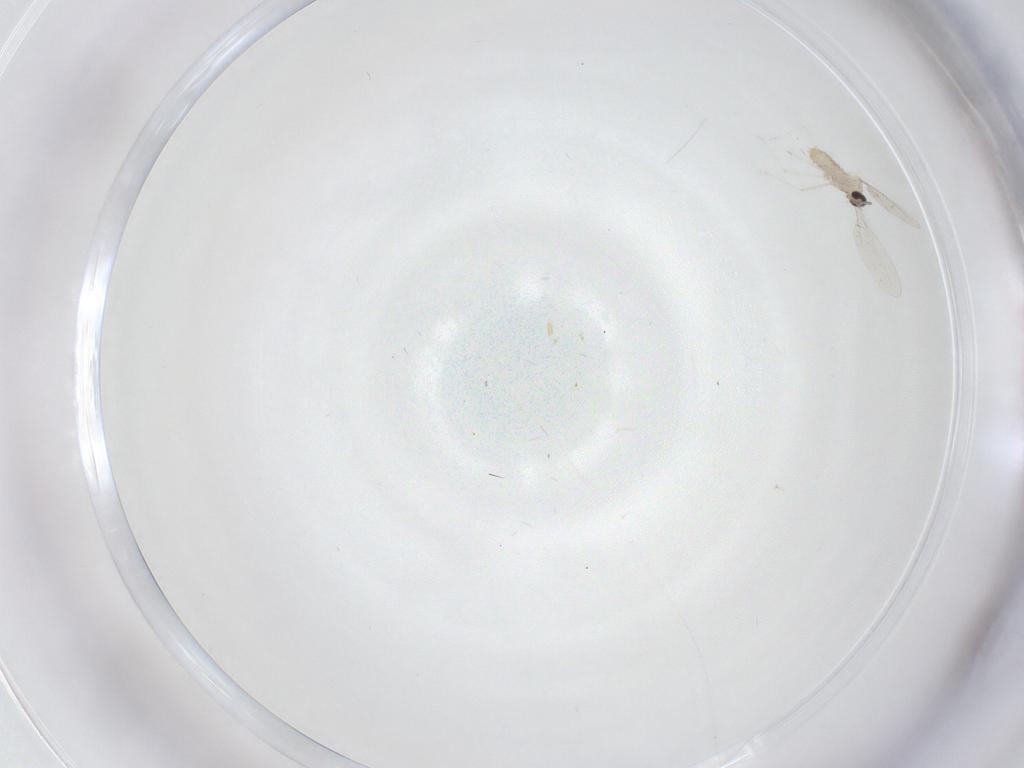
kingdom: Animalia
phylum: Arthropoda
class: Insecta
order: Diptera
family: Cecidomyiidae
